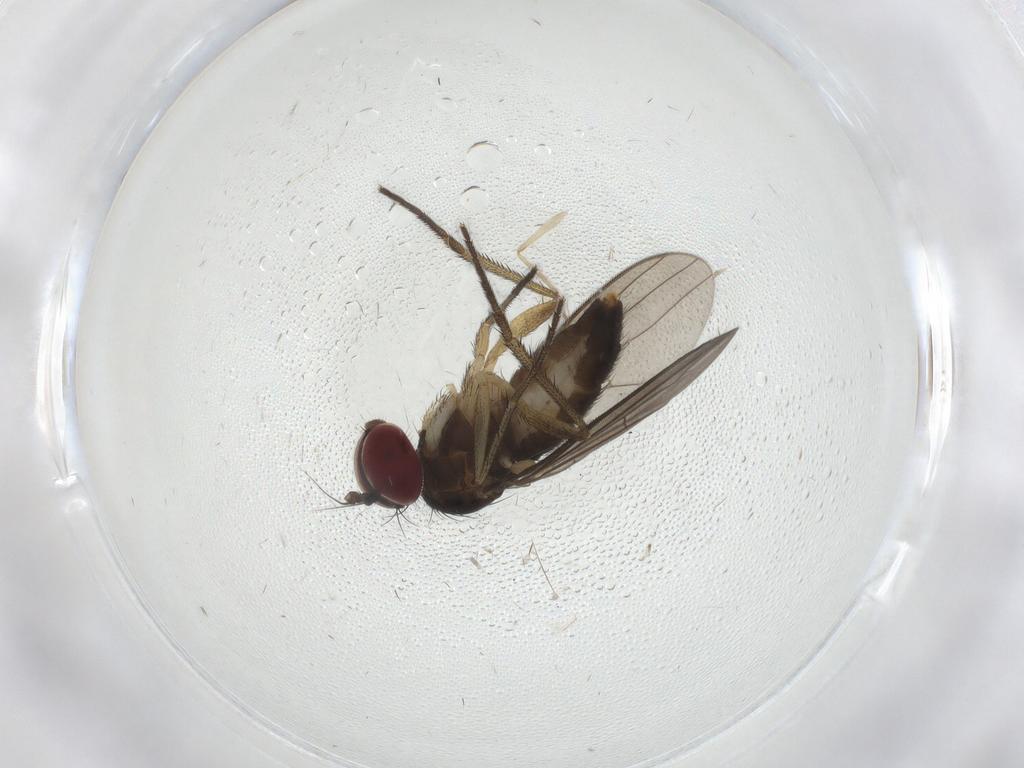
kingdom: Animalia
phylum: Arthropoda
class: Insecta
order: Diptera
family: Dolichopodidae
